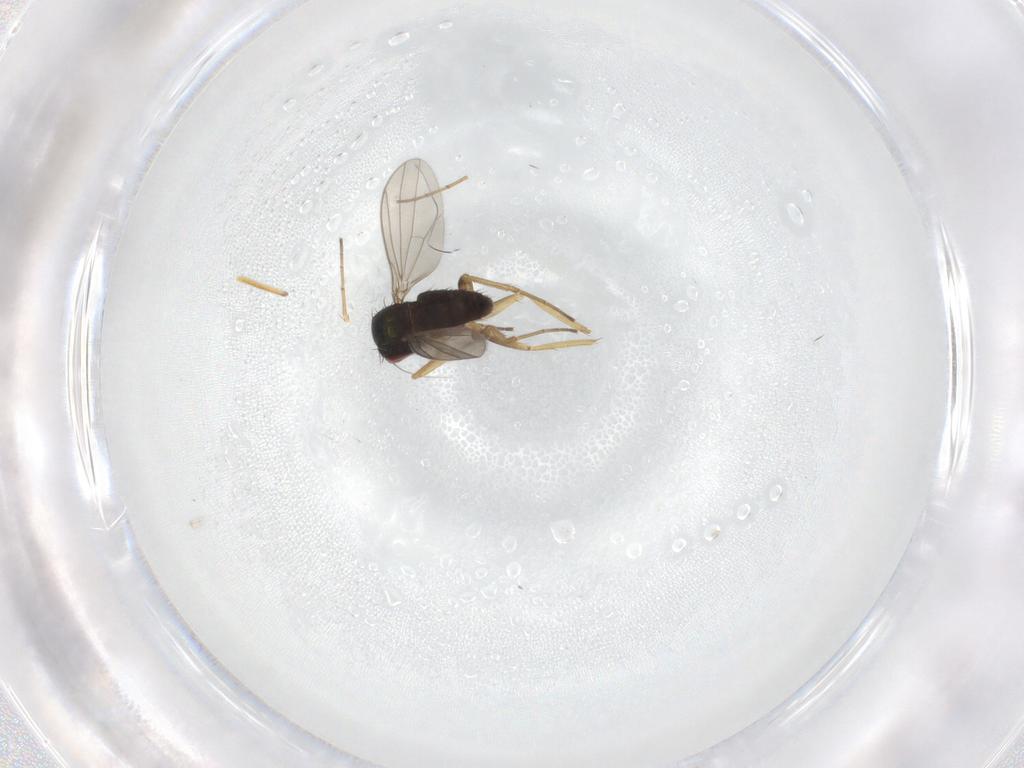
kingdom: Animalia
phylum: Arthropoda
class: Insecta
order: Diptera
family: Dolichopodidae
